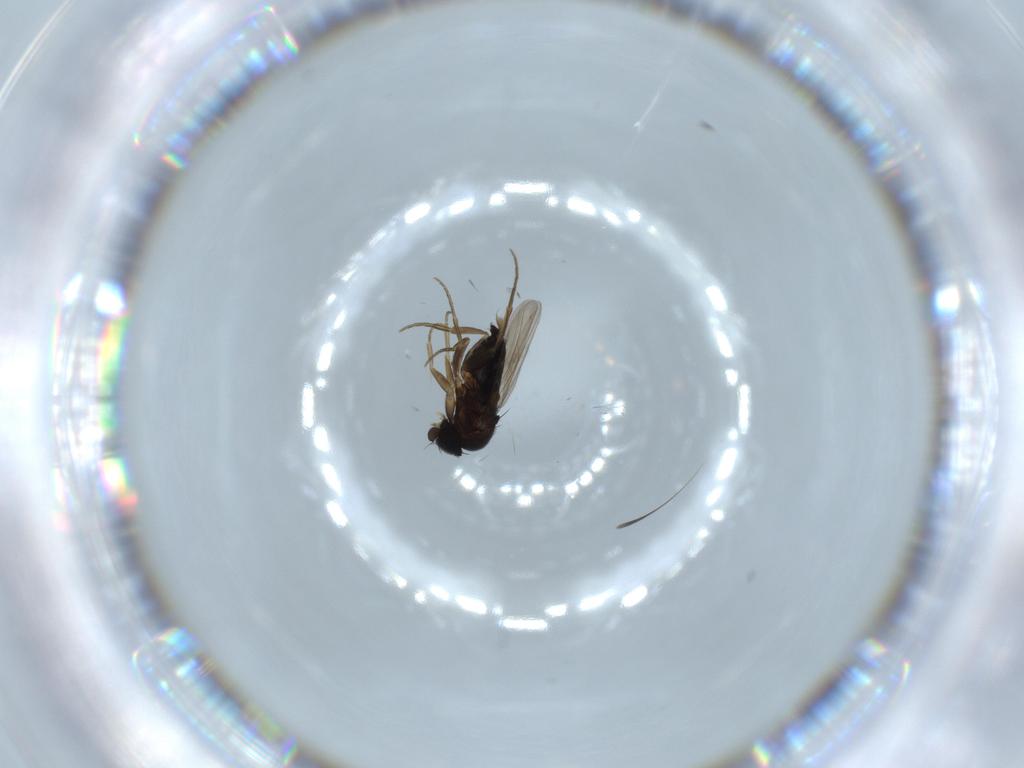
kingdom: Animalia
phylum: Arthropoda
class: Insecta
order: Diptera
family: Phoridae
